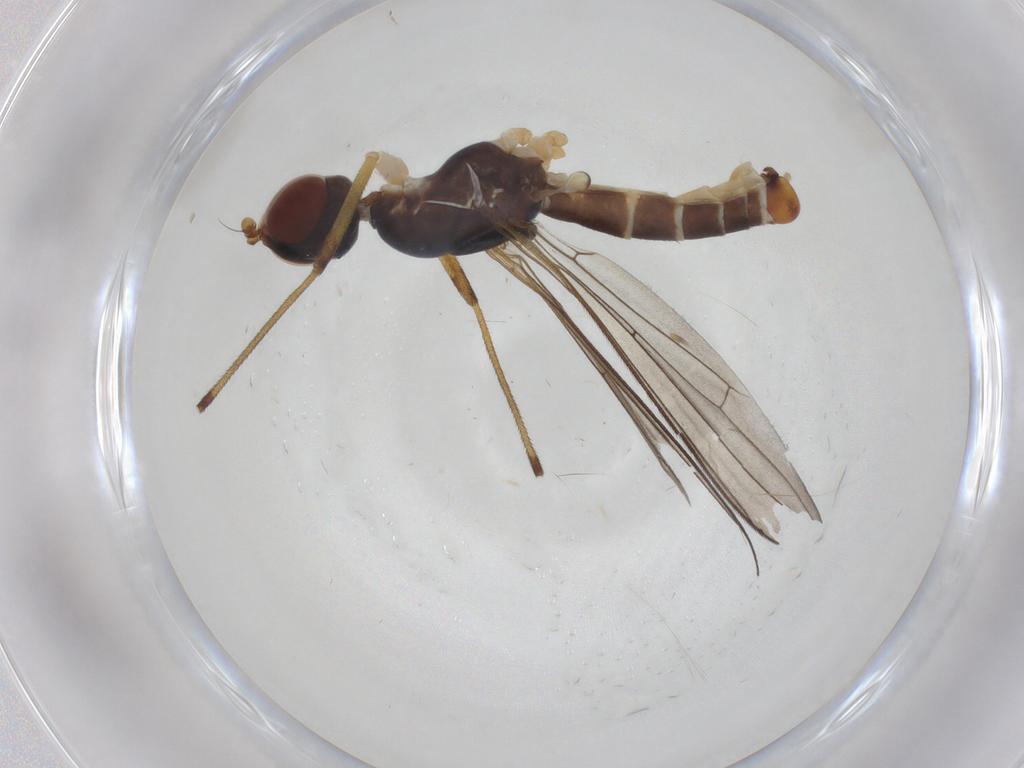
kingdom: Animalia
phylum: Arthropoda
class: Insecta
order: Diptera
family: Micropezidae
